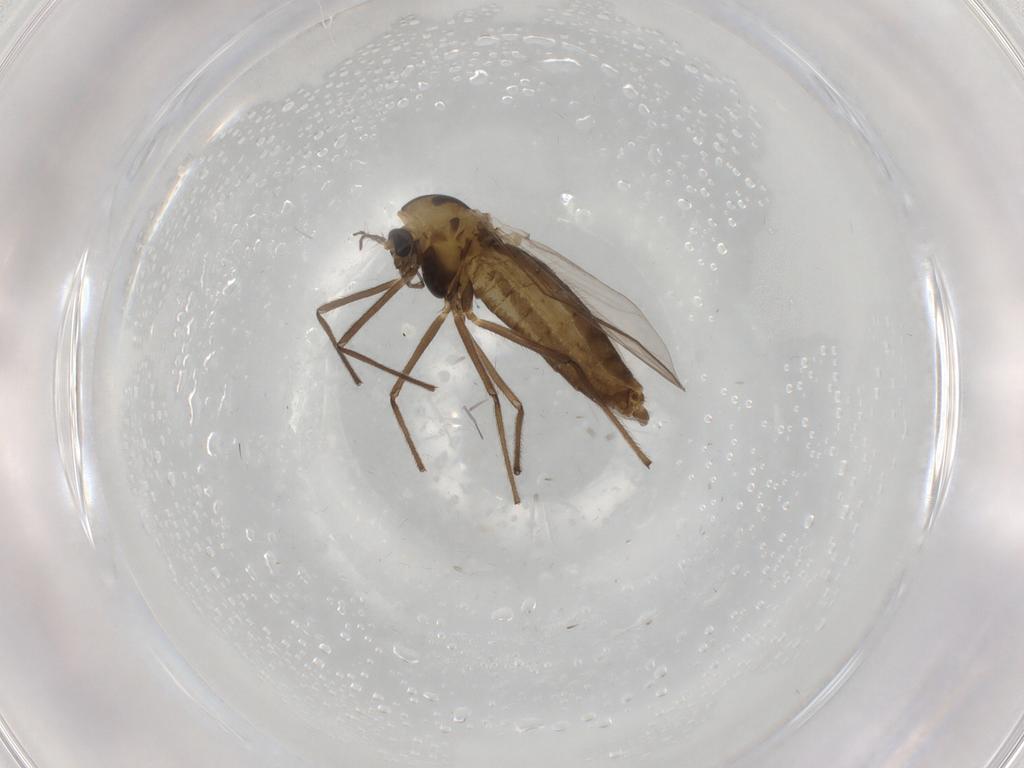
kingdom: Animalia
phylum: Arthropoda
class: Insecta
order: Diptera
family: Chironomidae
